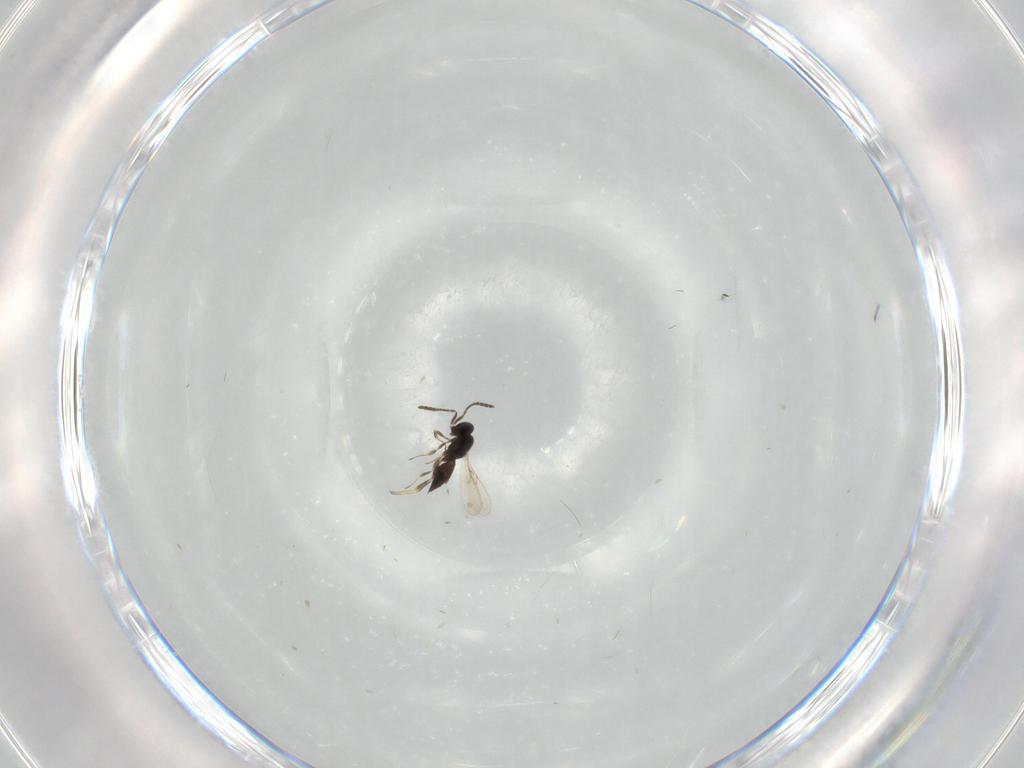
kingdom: Animalia
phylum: Arthropoda
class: Insecta
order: Hymenoptera
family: Scelionidae
